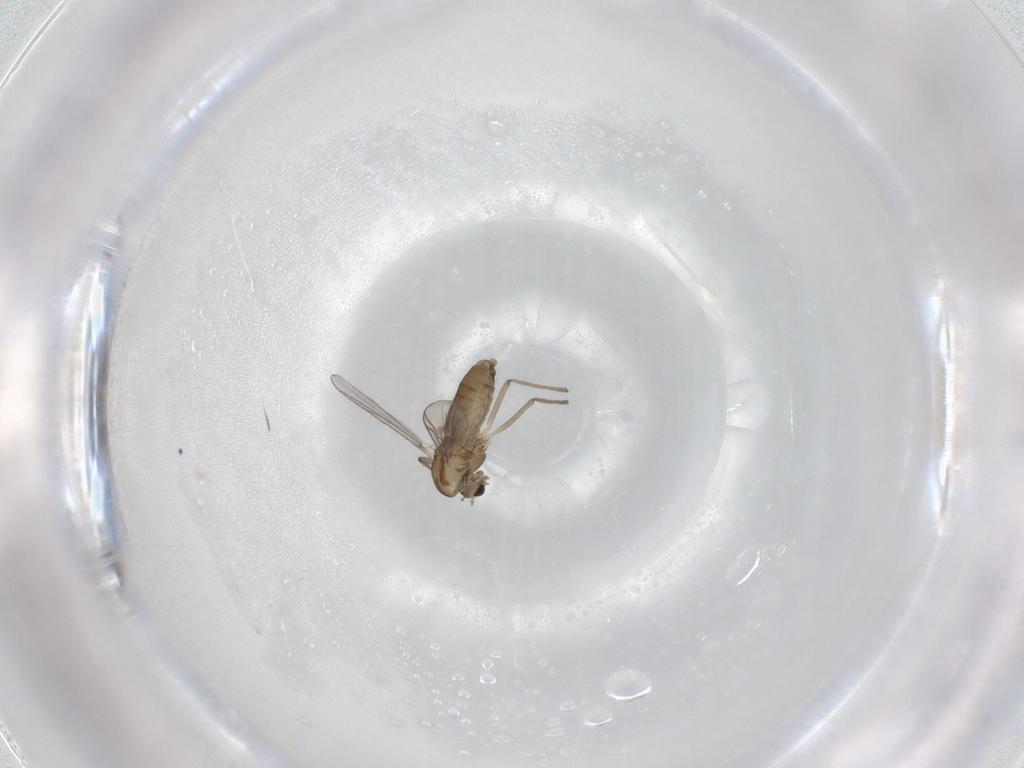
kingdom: Animalia
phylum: Arthropoda
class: Insecta
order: Diptera
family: Chironomidae
